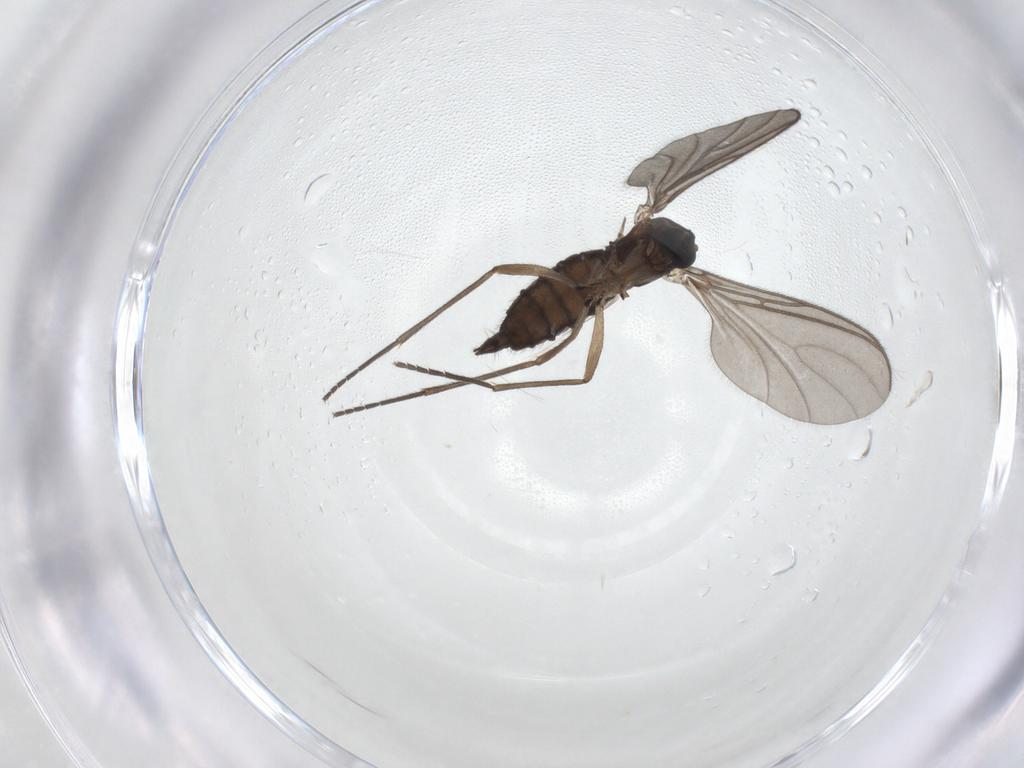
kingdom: Animalia
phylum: Arthropoda
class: Insecta
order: Diptera
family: Sciaridae
